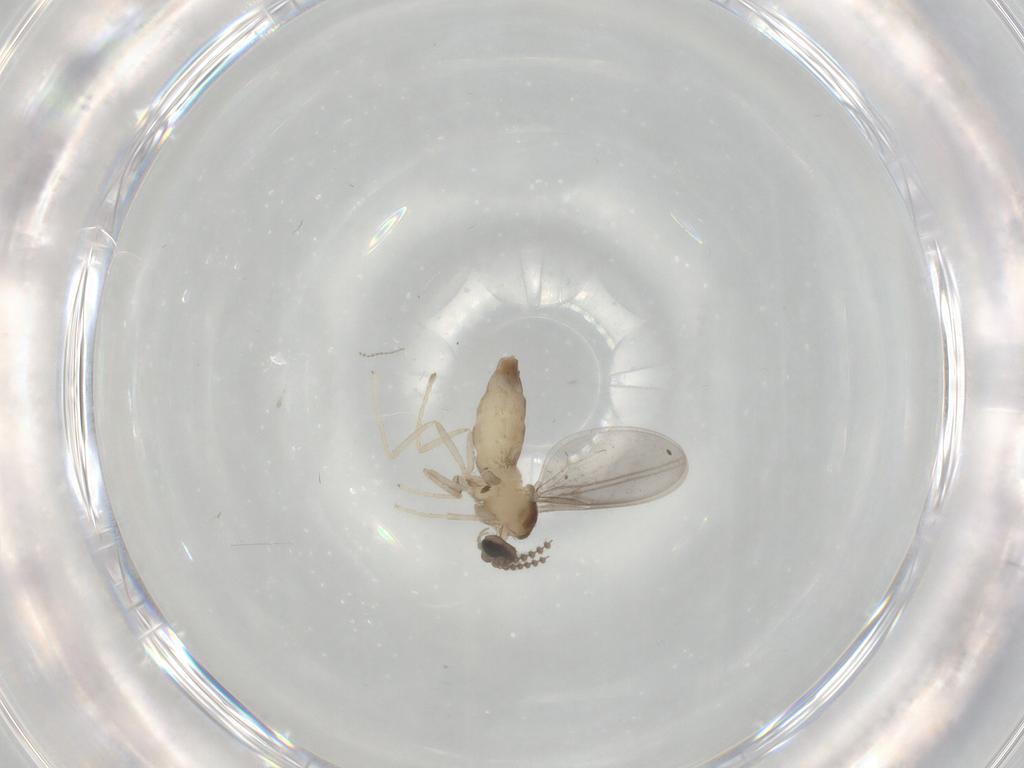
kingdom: Animalia
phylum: Arthropoda
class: Insecta
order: Diptera
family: Cecidomyiidae
